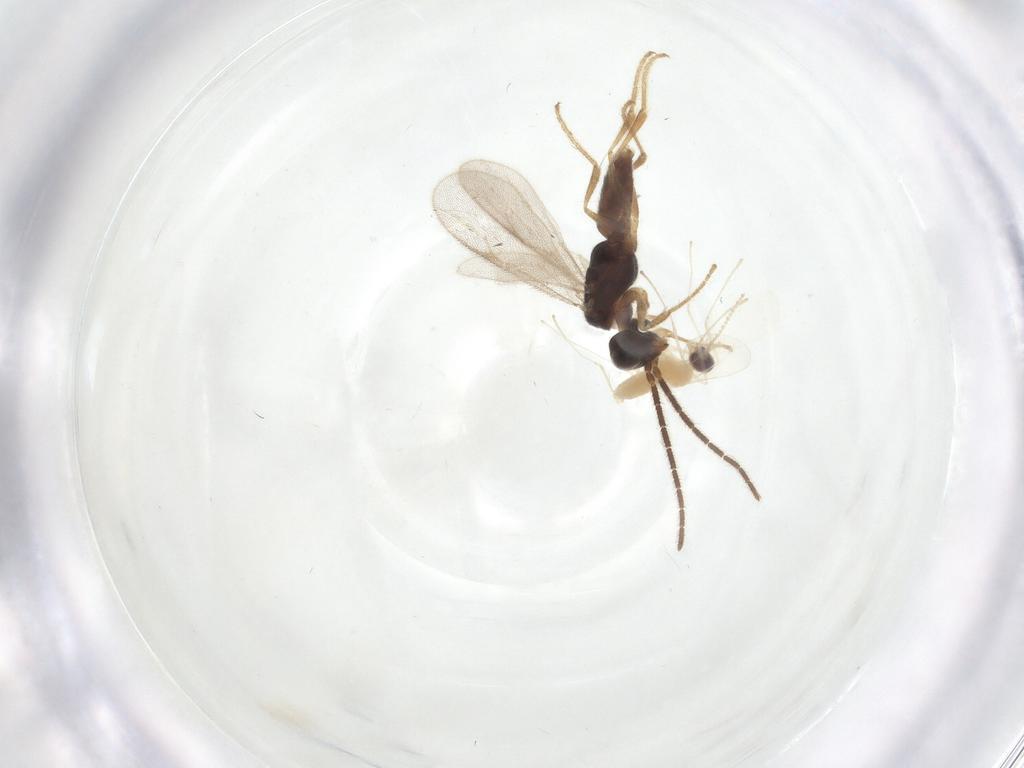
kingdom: Animalia
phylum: Arthropoda
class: Insecta
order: Diptera
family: Cecidomyiidae
